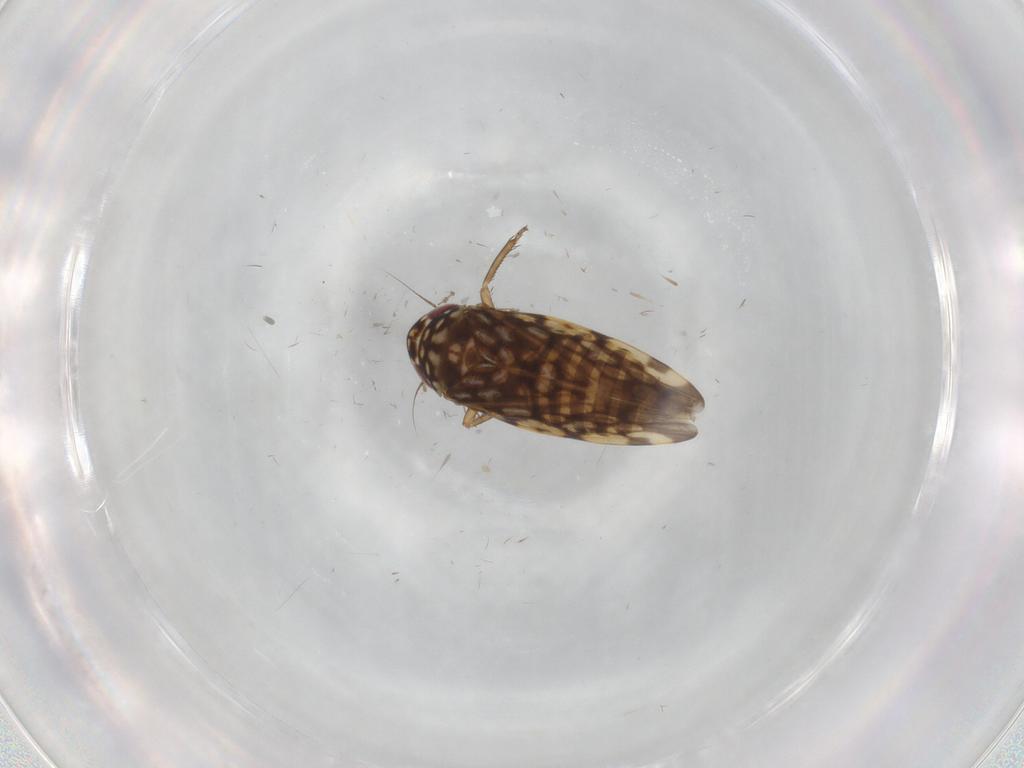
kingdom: Animalia
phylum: Arthropoda
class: Insecta
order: Hemiptera
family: Cicadellidae
